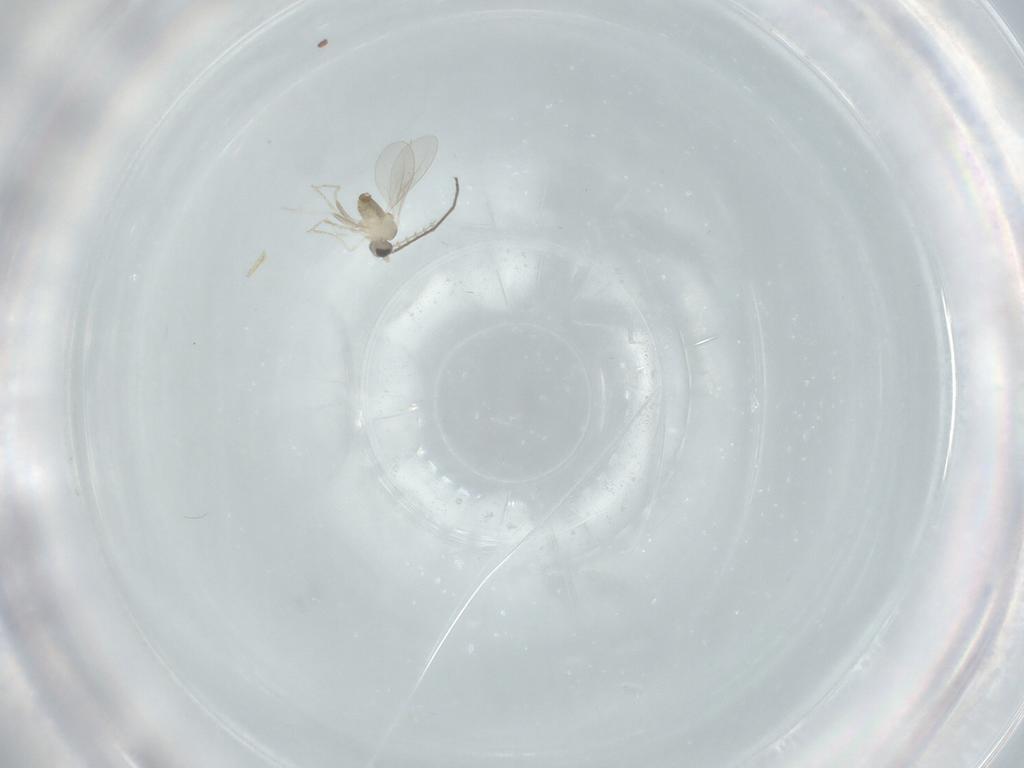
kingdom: Animalia
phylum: Arthropoda
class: Insecta
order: Diptera
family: Cecidomyiidae
